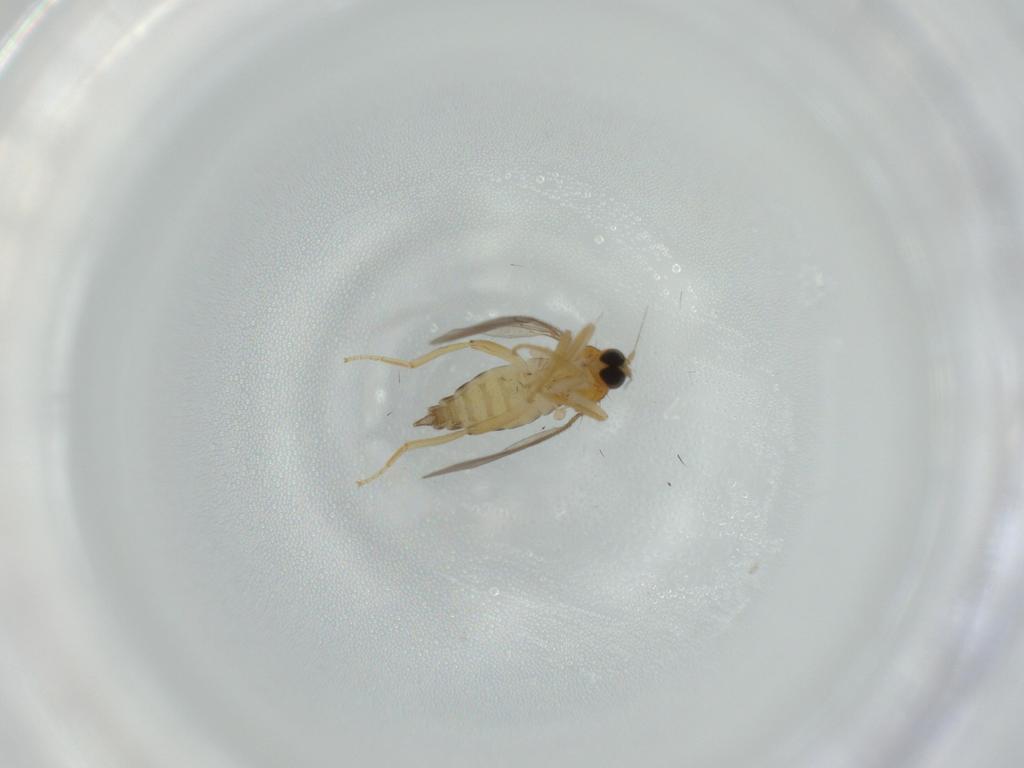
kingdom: Animalia
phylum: Arthropoda
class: Insecta
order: Diptera
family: Hybotidae
